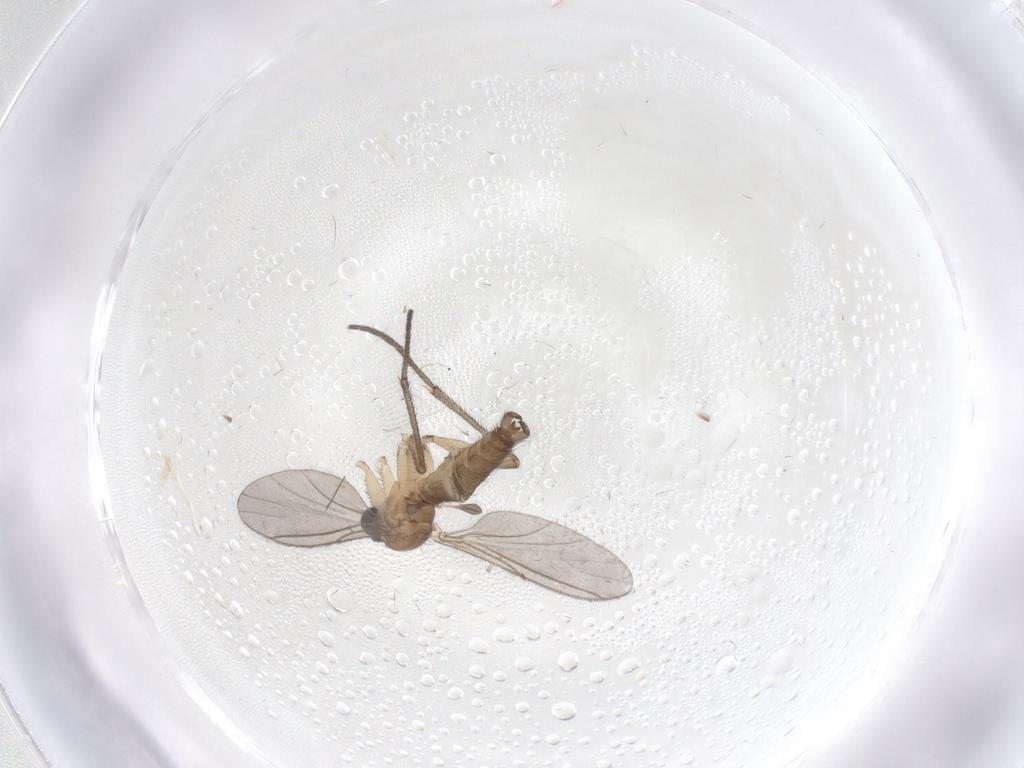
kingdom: Animalia
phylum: Arthropoda
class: Insecta
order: Diptera
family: Sciaridae
